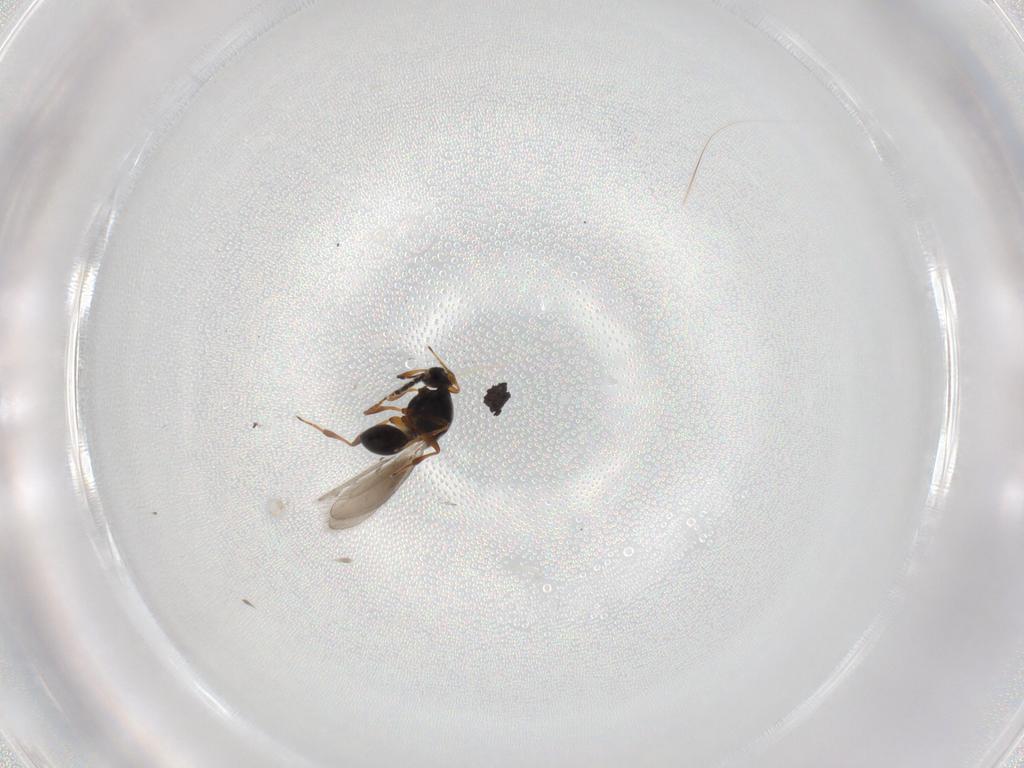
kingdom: Animalia
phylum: Arthropoda
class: Insecta
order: Hymenoptera
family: Platygastridae
